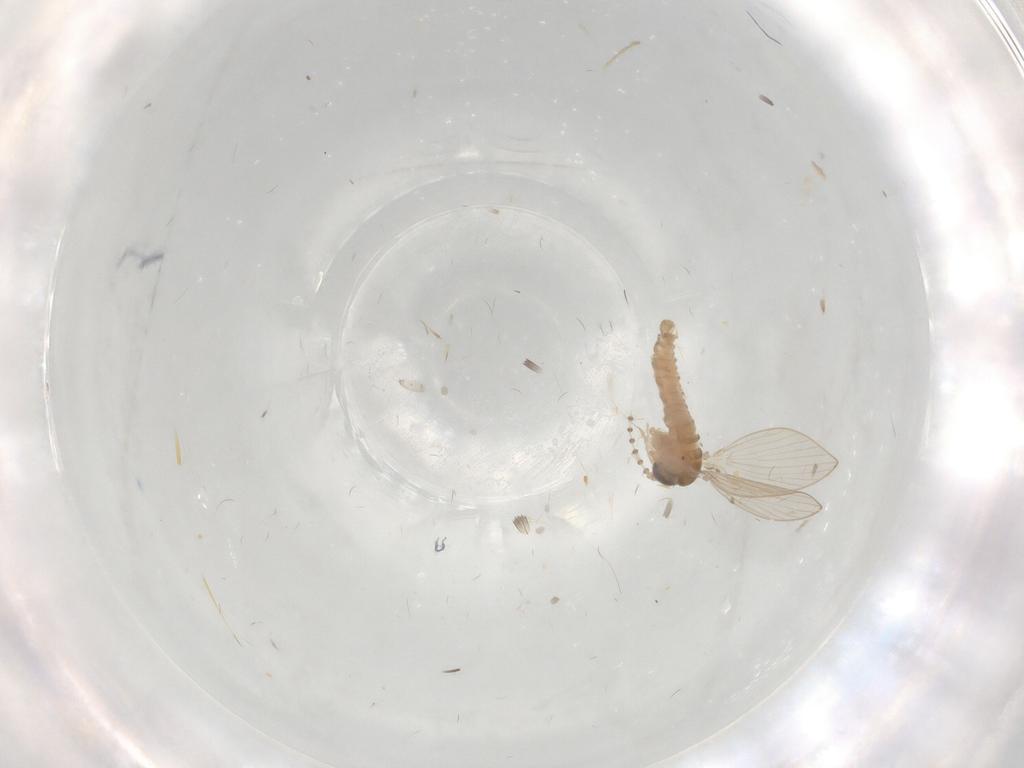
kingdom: Animalia
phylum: Arthropoda
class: Insecta
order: Diptera
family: Psychodidae
